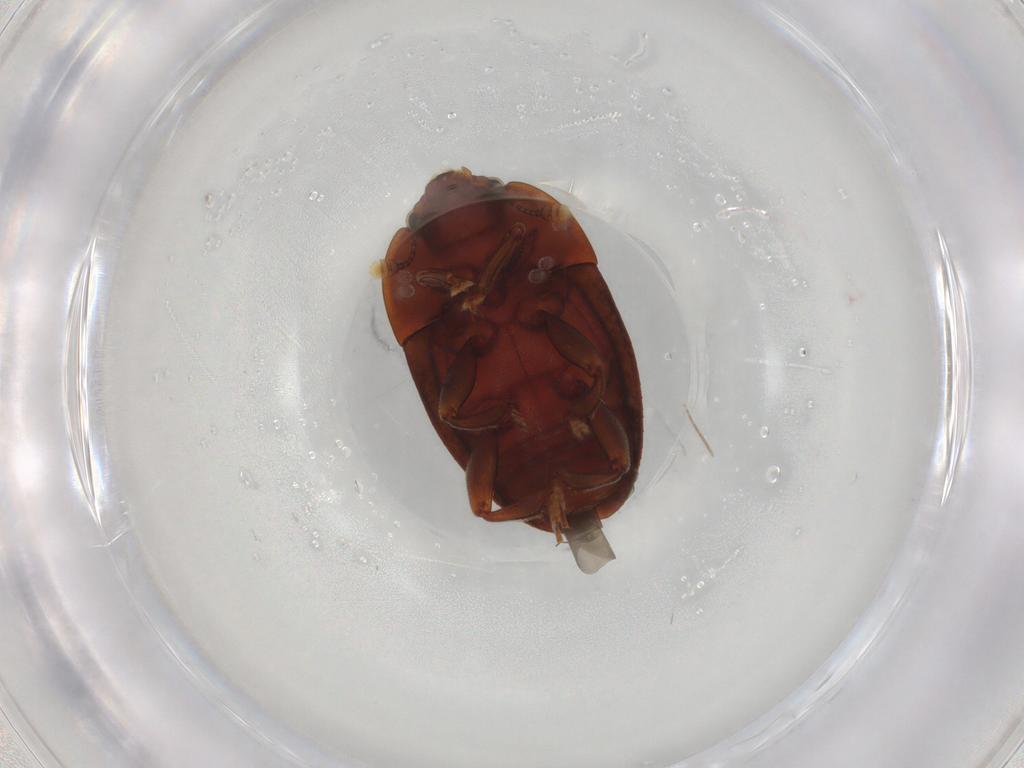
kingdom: Animalia
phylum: Arthropoda
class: Insecta
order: Coleoptera
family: Nitidulidae
